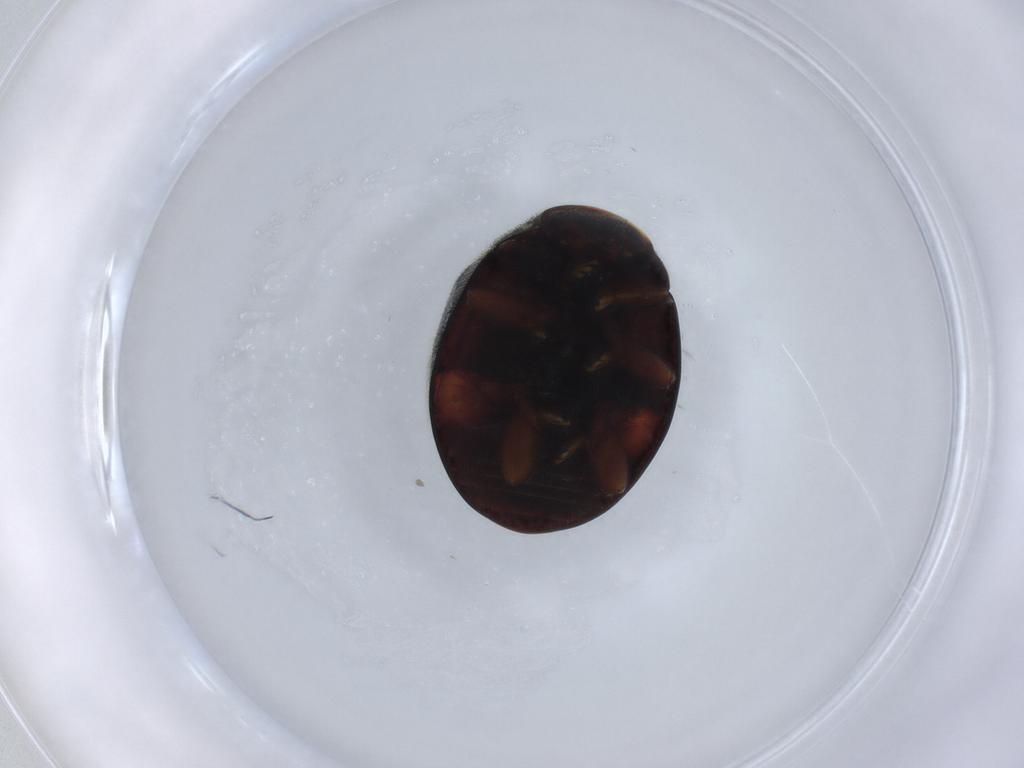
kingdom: Animalia
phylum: Arthropoda
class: Insecta
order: Coleoptera
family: Coccinellidae
